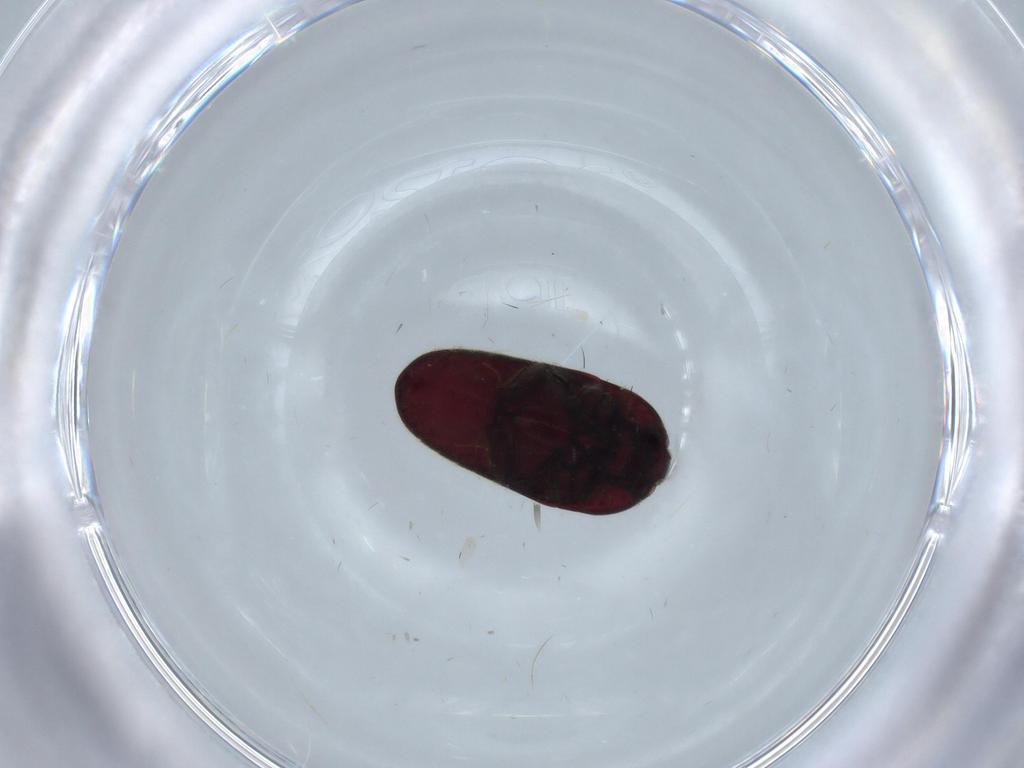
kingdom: Animalia
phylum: Arthropoda
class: Insecta
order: Coleoptera
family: Throscidae
